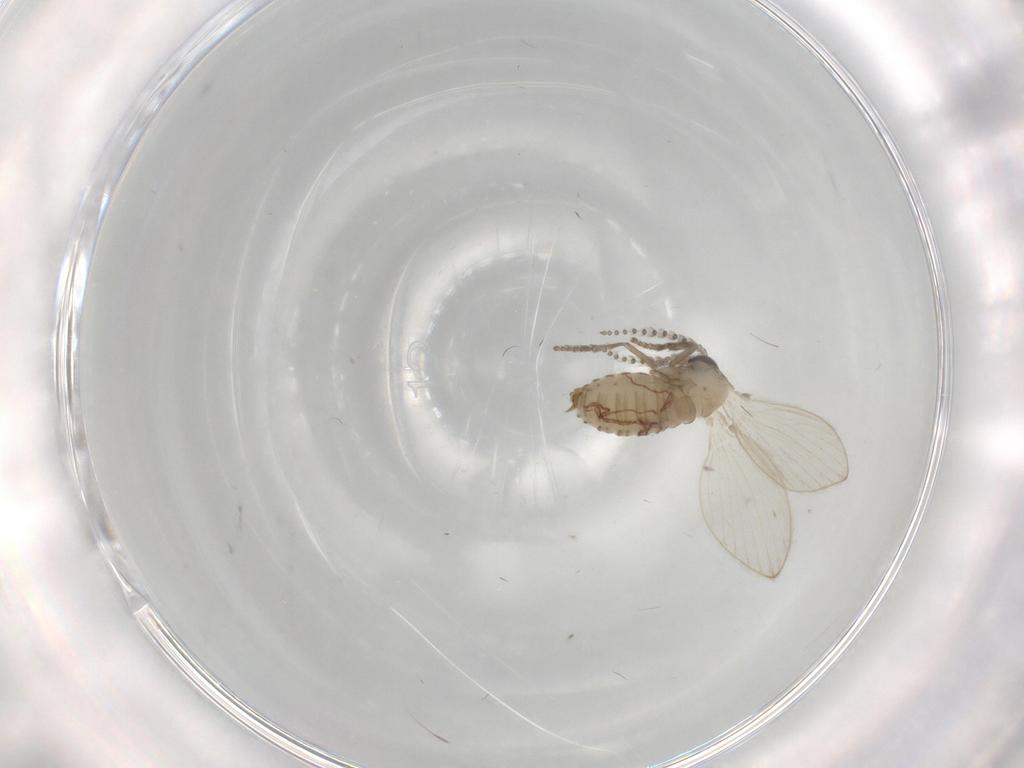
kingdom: Animalia
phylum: Arthropoda
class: Insecta
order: Diptera
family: Psychodidae
